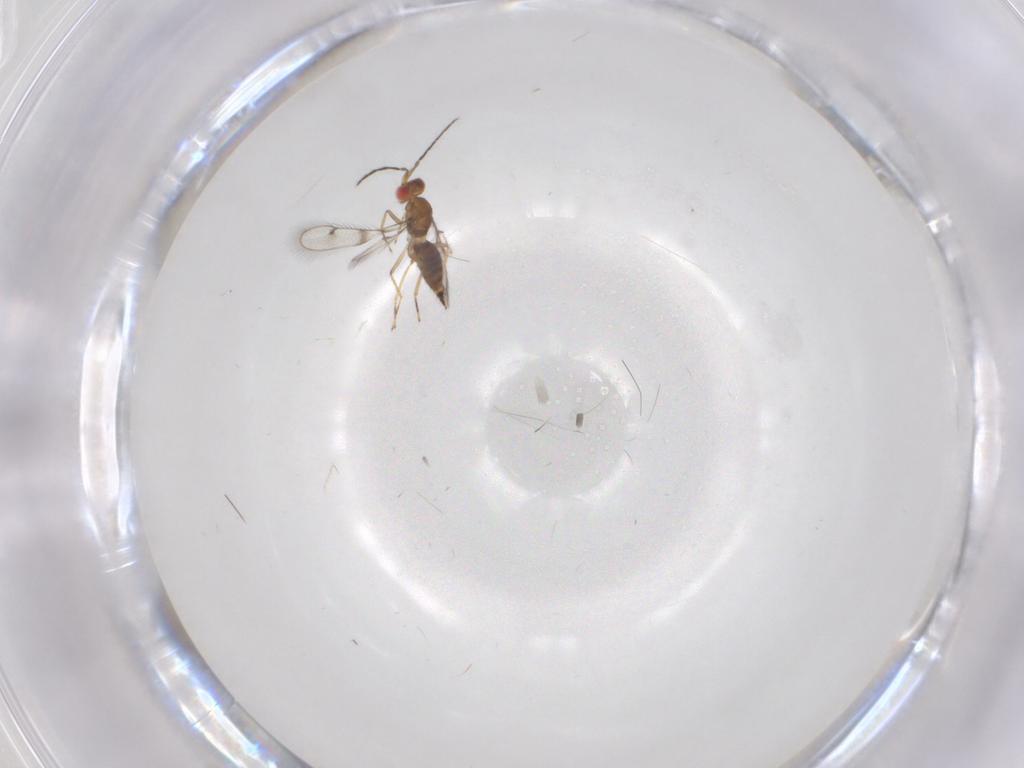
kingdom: Animalia
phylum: Arthropoda
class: Insecta
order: Hymenoptera
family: Eulophidae
